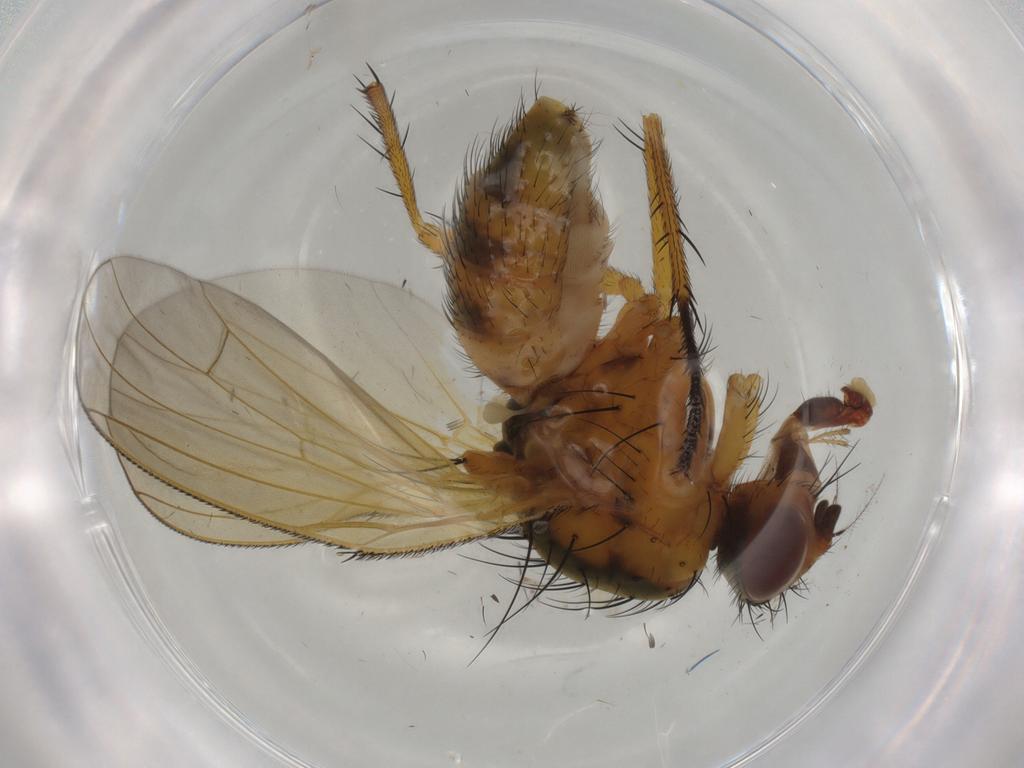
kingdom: Animalia
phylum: Arthropoda
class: Insecta
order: Diptera
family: Anthomyiidae
